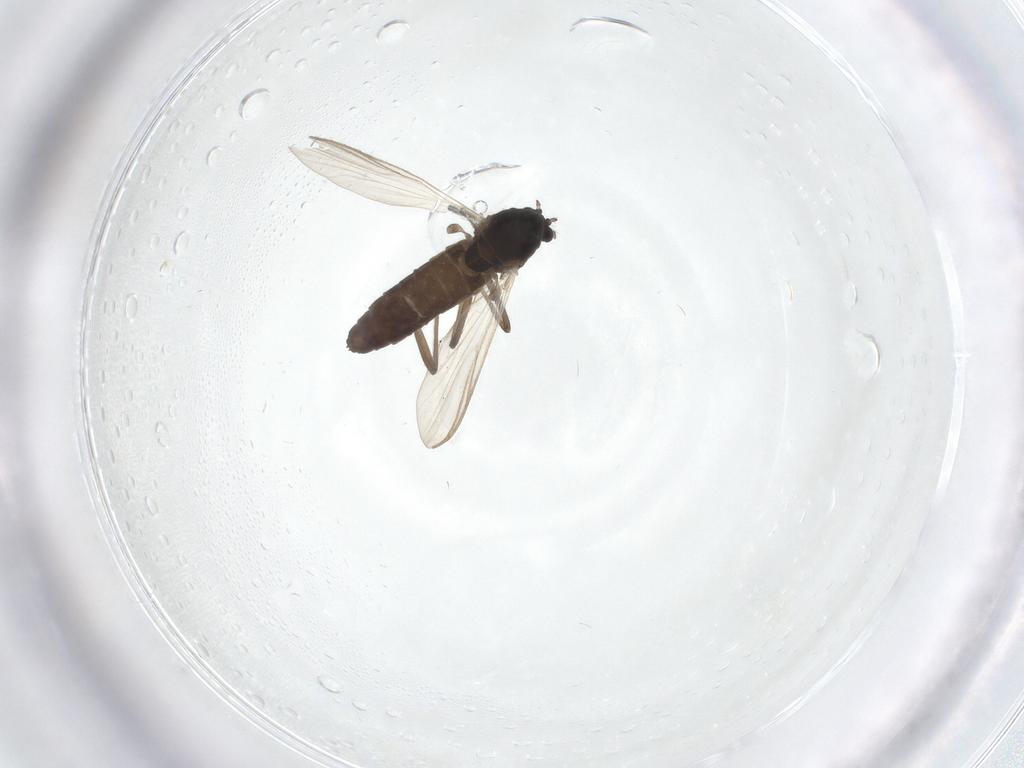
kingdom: Animalia
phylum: Arthropoda
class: Insecta
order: Diptera
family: Chironomidae
